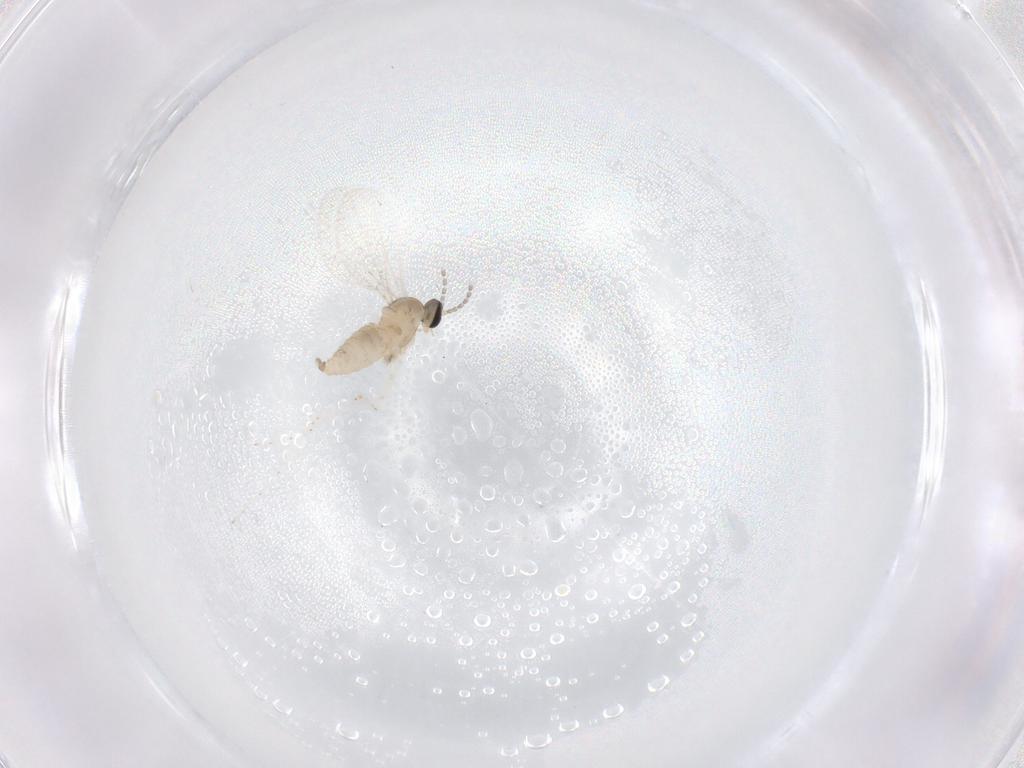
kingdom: Animalia
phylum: Arthropoda
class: Insecta
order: Diptera
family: Cecidomyiidae
